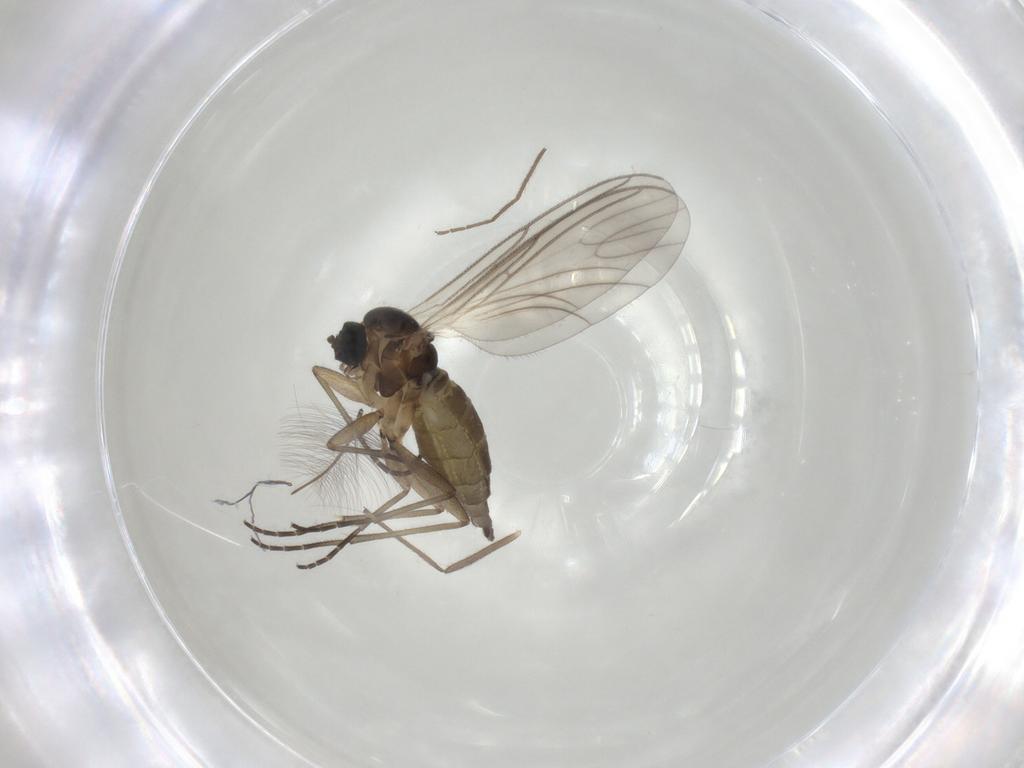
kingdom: Animalia
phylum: Arthropoda
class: Insecta
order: Diptera
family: Chironomidae
